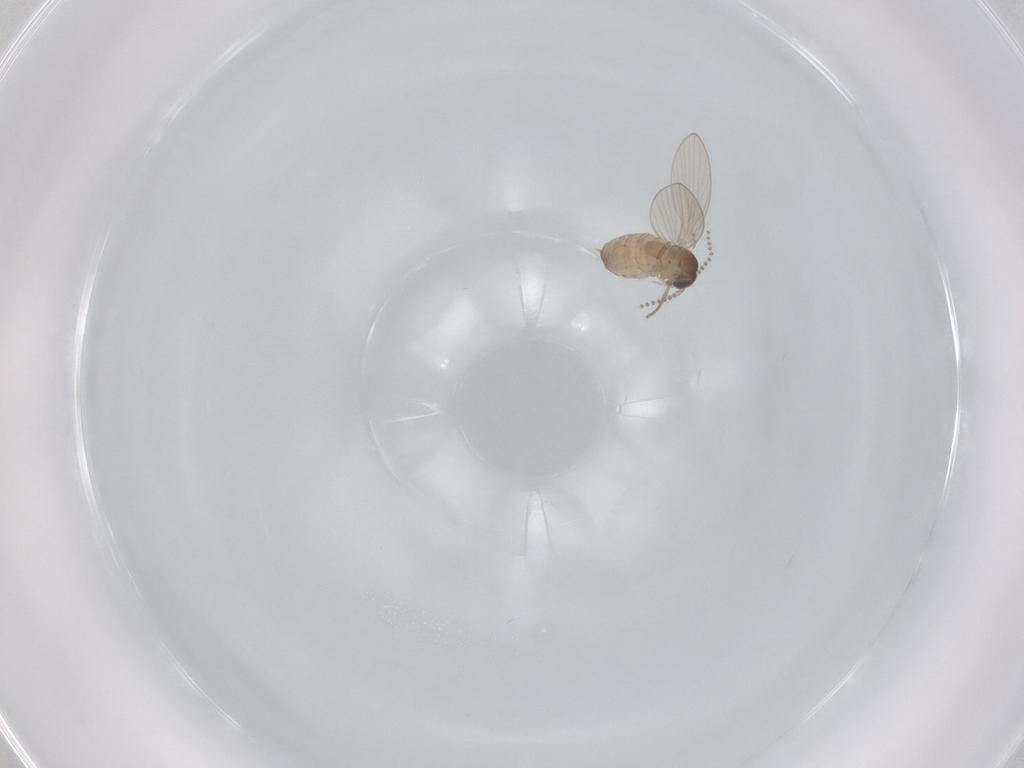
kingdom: Animalia
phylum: Arthropoda
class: Insecta
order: Diptera
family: Psychodidae
